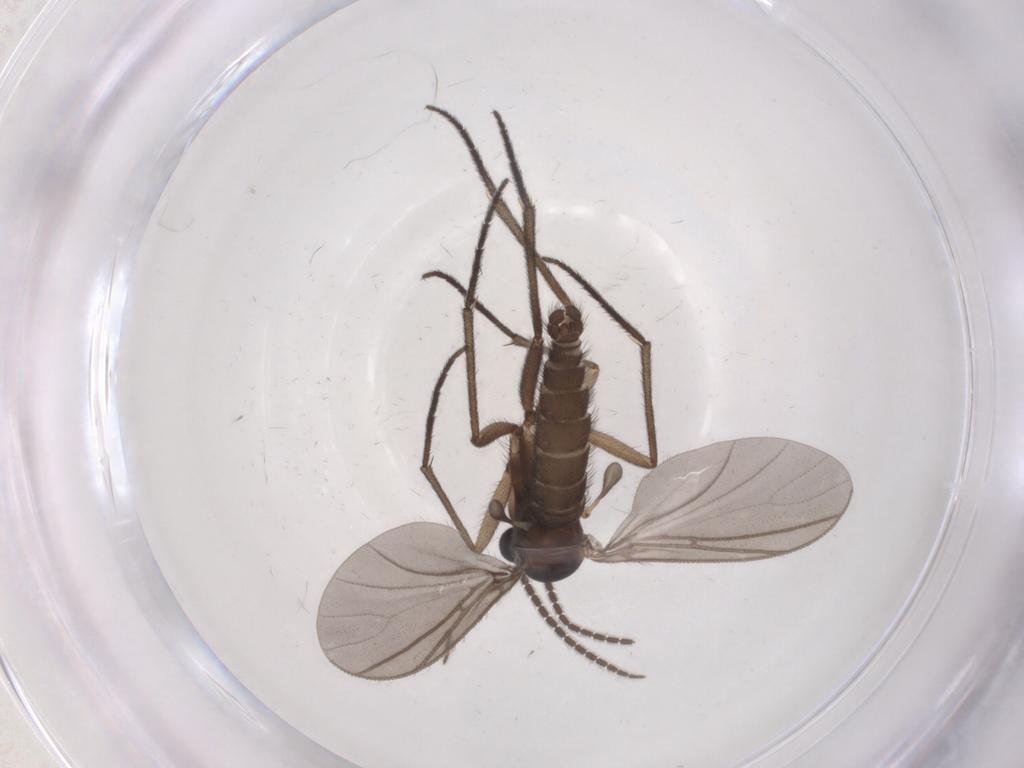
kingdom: Animalia
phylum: Arthropoda
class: Insecta
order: Diptera
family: Sciaridae
